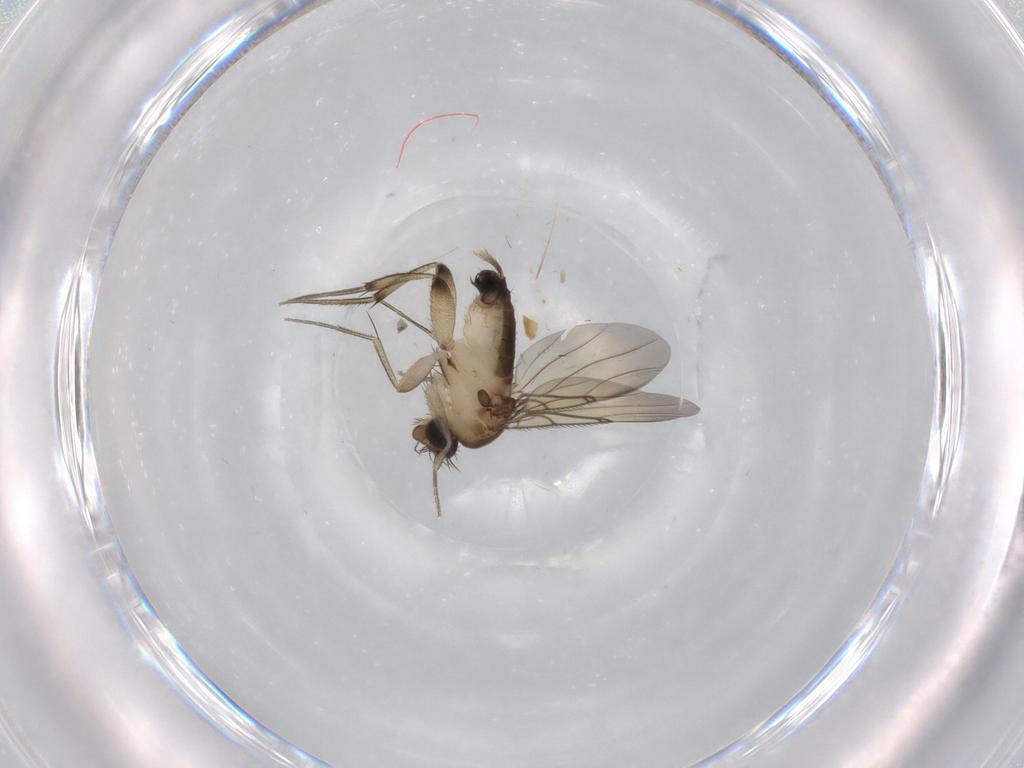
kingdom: Animalia
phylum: Arthropoda
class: Insecta
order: Diptera
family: Phoridae
